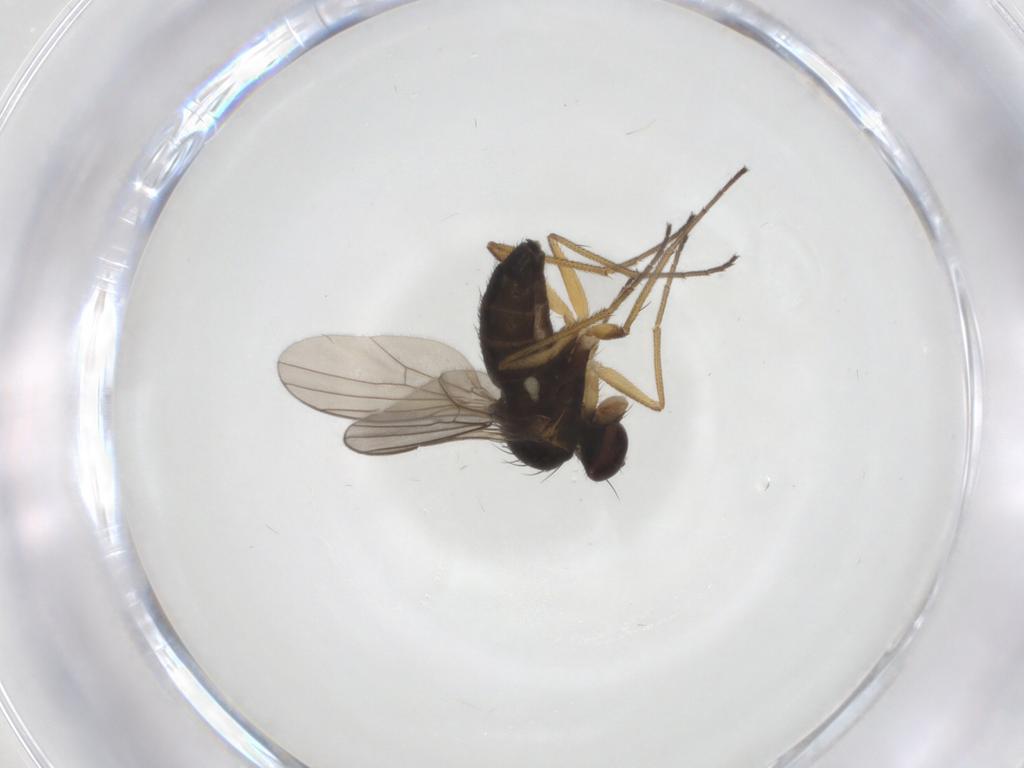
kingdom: Animalia
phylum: Arthropoda
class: Insecta
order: Diptera
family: Dolichopodidae
